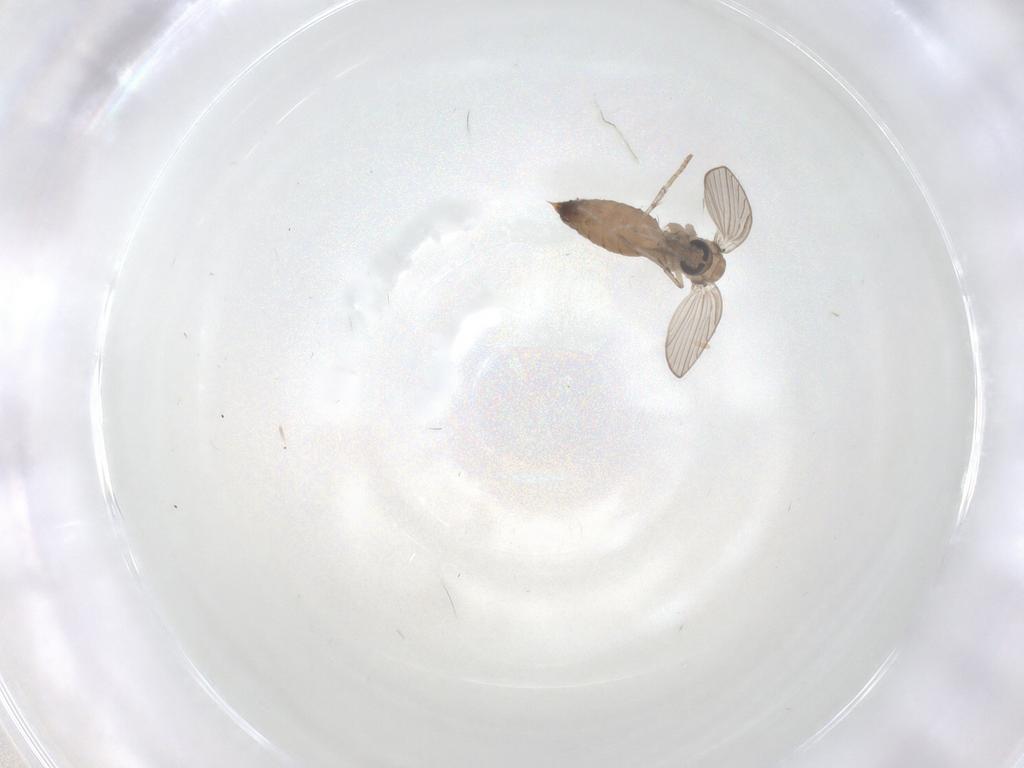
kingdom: Animalia
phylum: Arthropoda
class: Insecta
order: Diptera
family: Psychodidae
